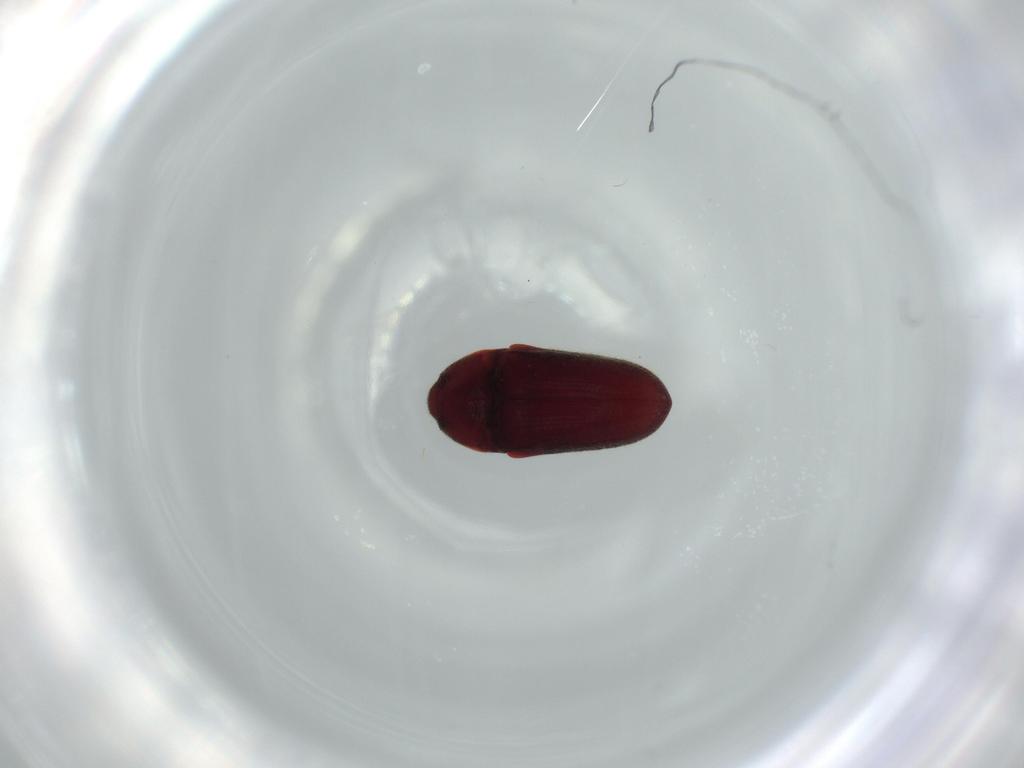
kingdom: Animalia
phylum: Arthropoda
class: Insecta
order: Coleoptera
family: Throscidae
